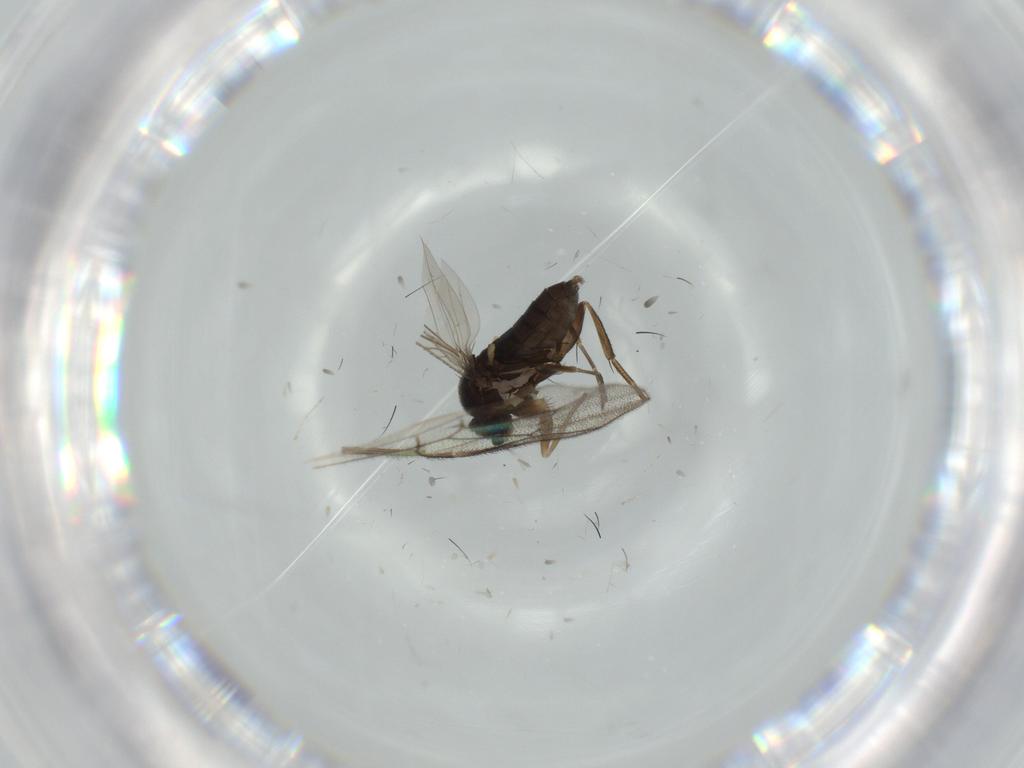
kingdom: Animalia
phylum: Arthropoda
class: Insecta
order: Diptera
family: Phoridae
